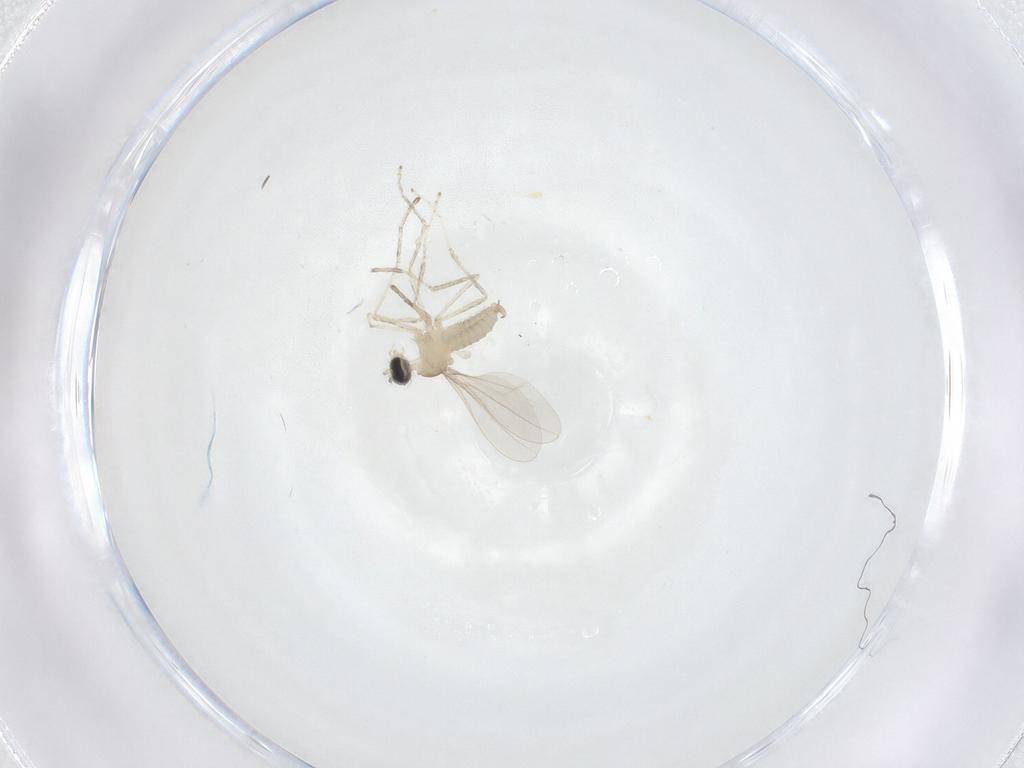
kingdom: Animalia
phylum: Arthropoda
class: Insecta
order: Diptera
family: Cecidomyiidae
